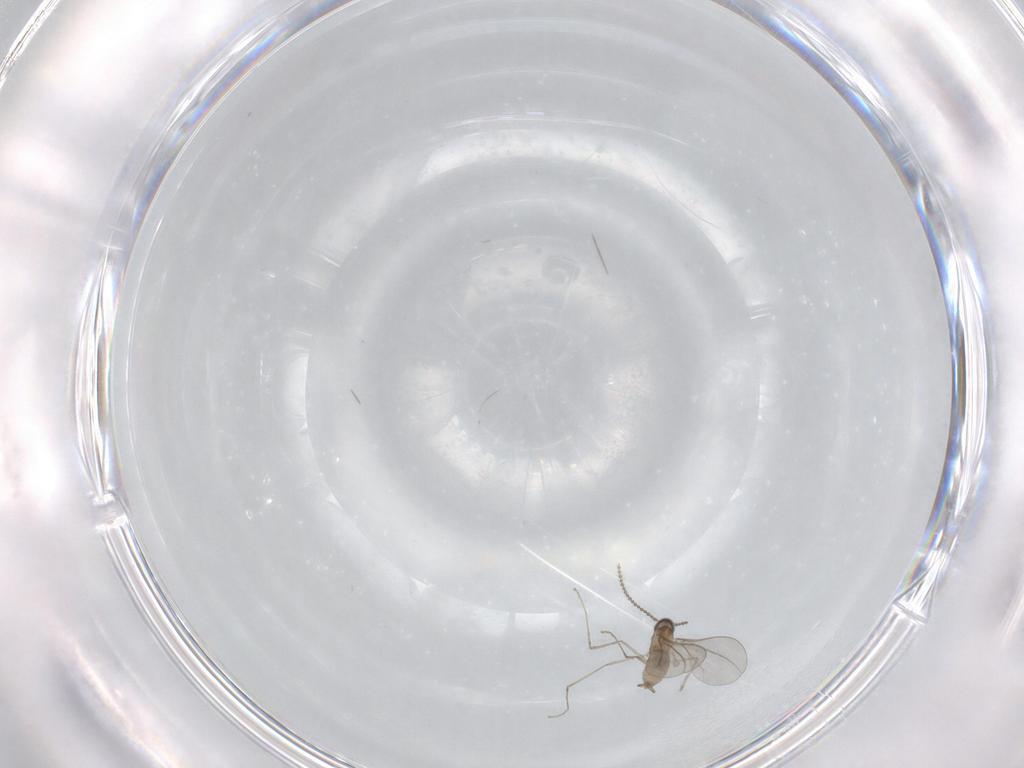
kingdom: Animalia
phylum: Arthropoda
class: Insecta
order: Diptera
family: Cecidomyiidae
